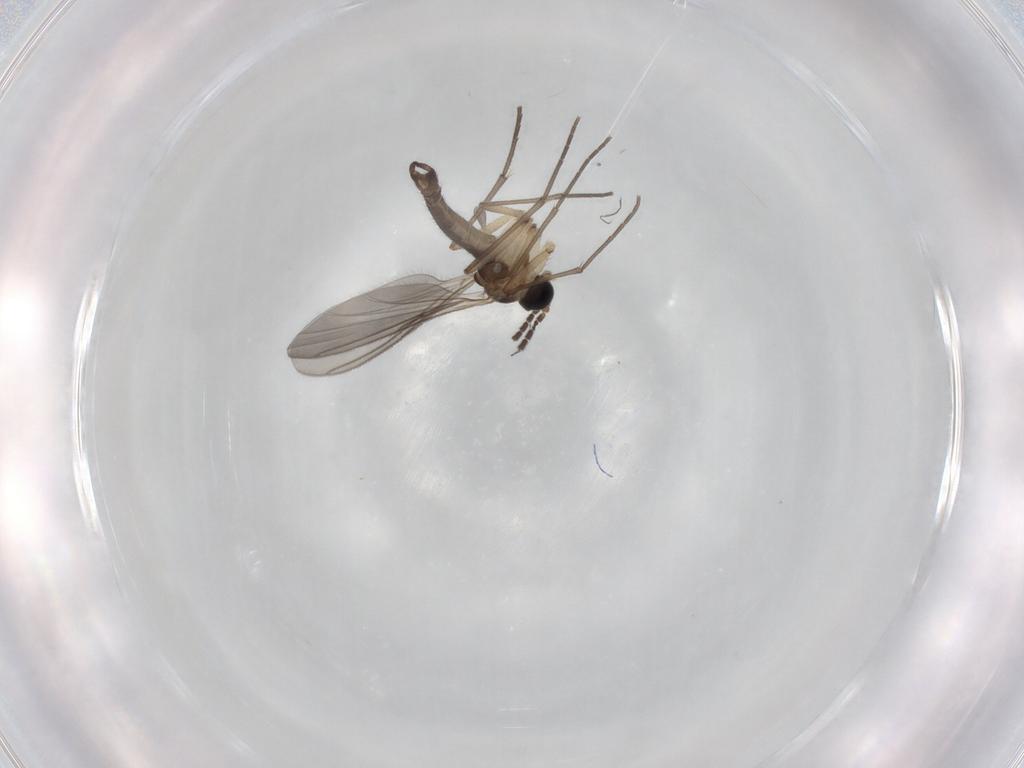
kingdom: Animalia
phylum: Arthropoda
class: Insecta
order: Diptera
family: Sciaridae
